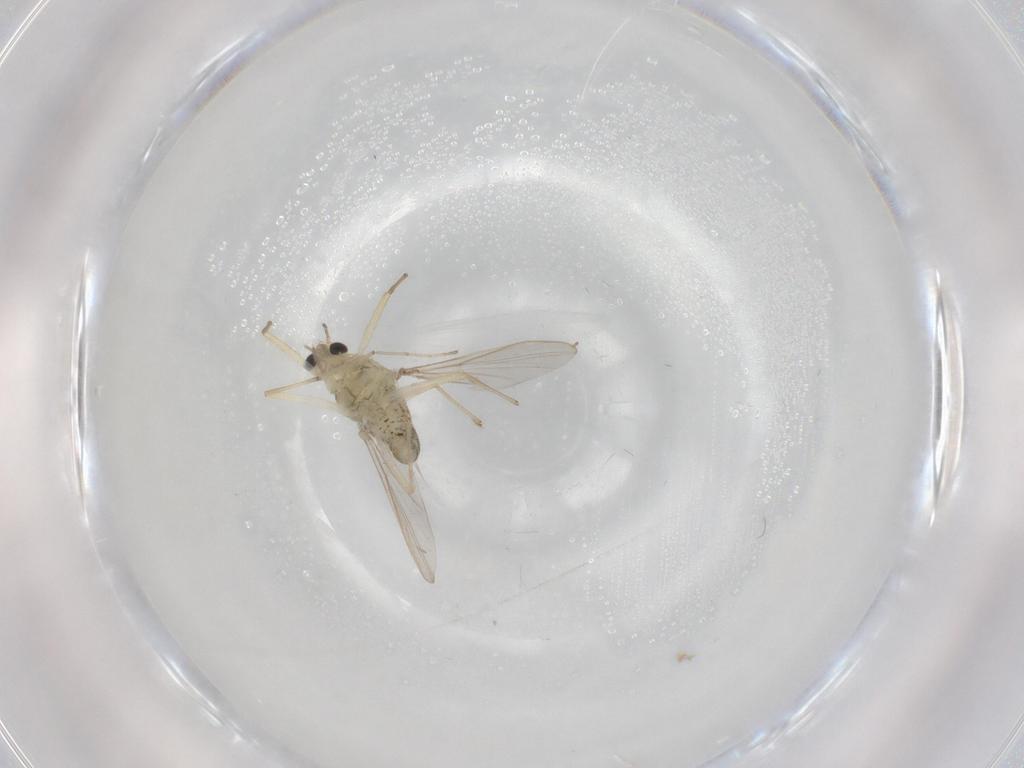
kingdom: Animalia
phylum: Arthropoda
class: Insecta
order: Diptera
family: Chironomidae
